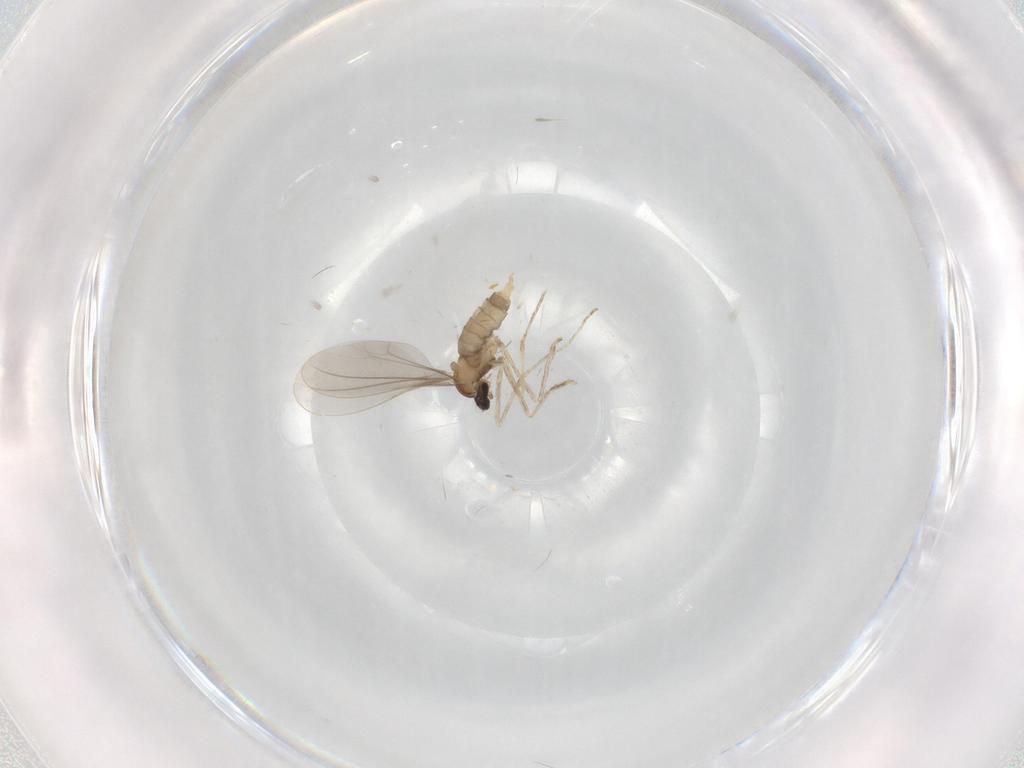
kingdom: Animalia
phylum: Arthropoda
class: Insecta
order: Diptera
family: Cecidomyiidae
